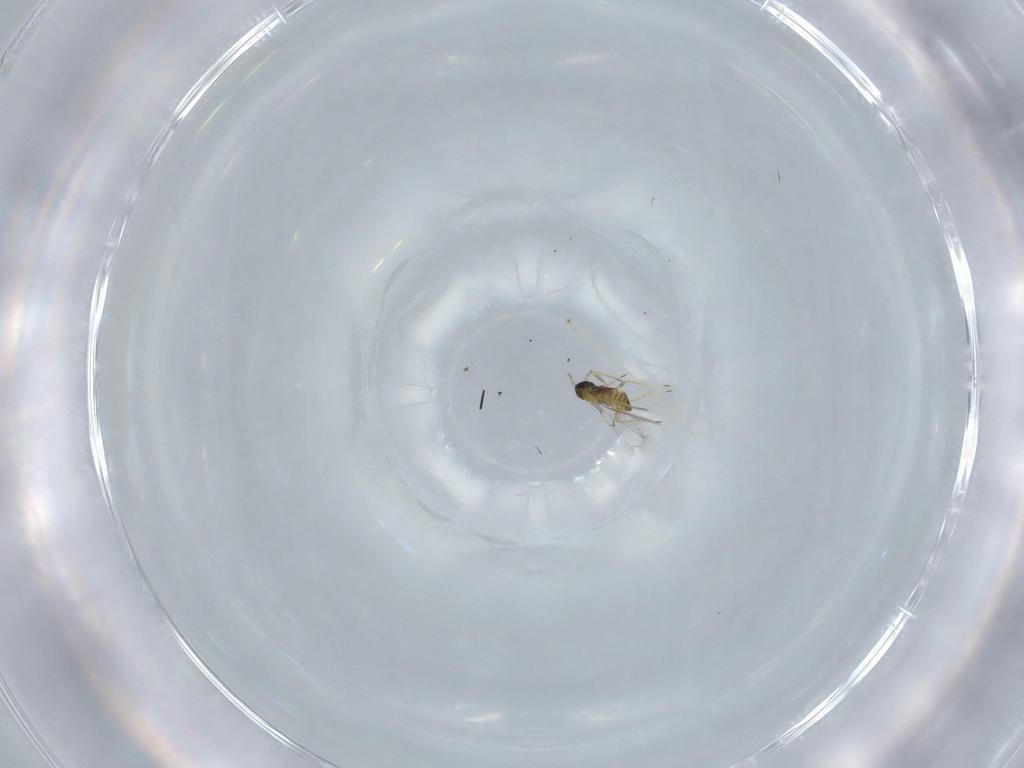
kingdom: Animalia
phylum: Arthropoda
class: Insecta
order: Hymenoptera
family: Trichogrammatidae
